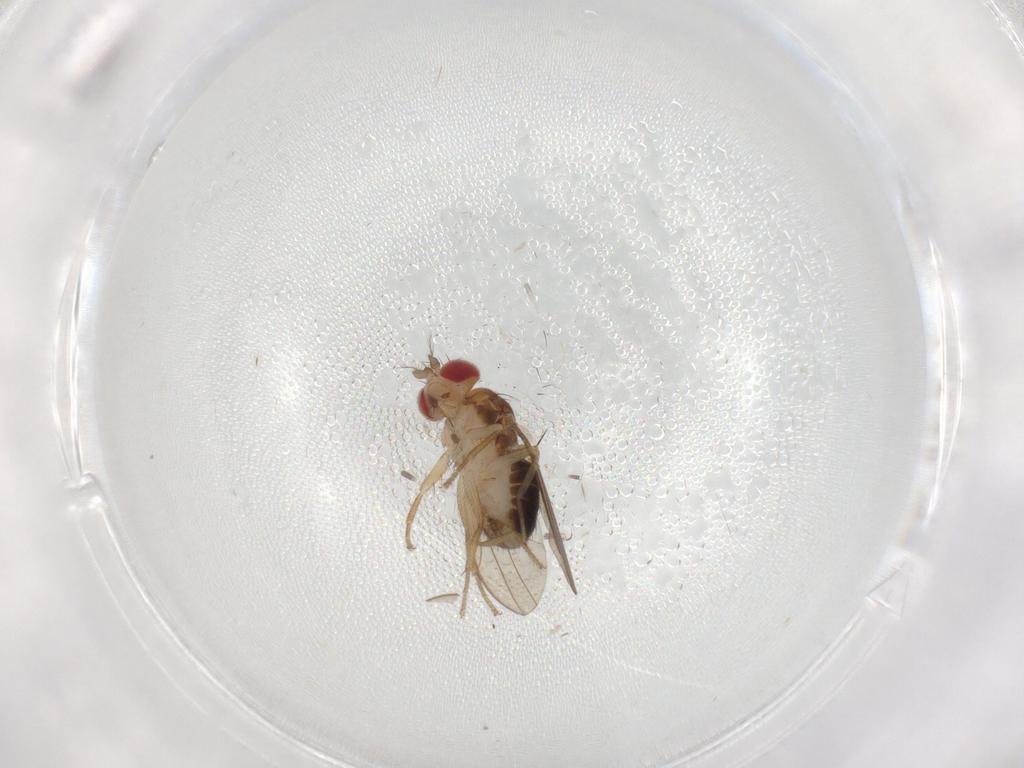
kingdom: Animalia
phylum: Arthropoda
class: Insecta
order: Diptera
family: Drosophilidae
